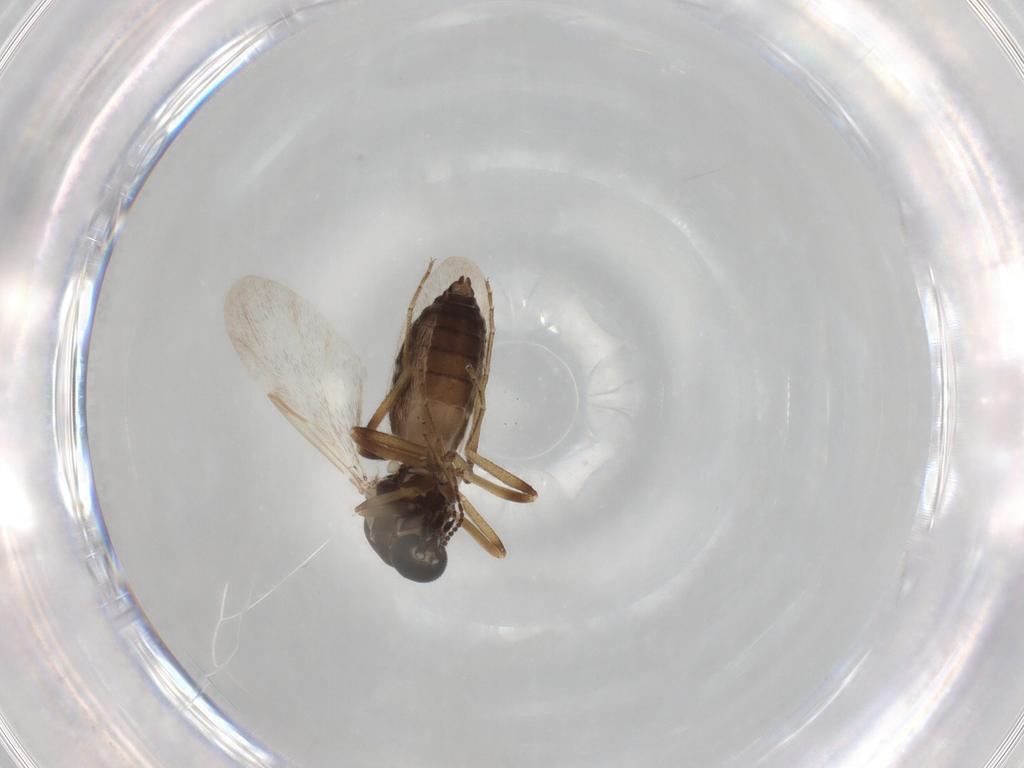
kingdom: Animalia
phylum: Arthropoda
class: Insecta
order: Diptera
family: Ceratopogonidae
